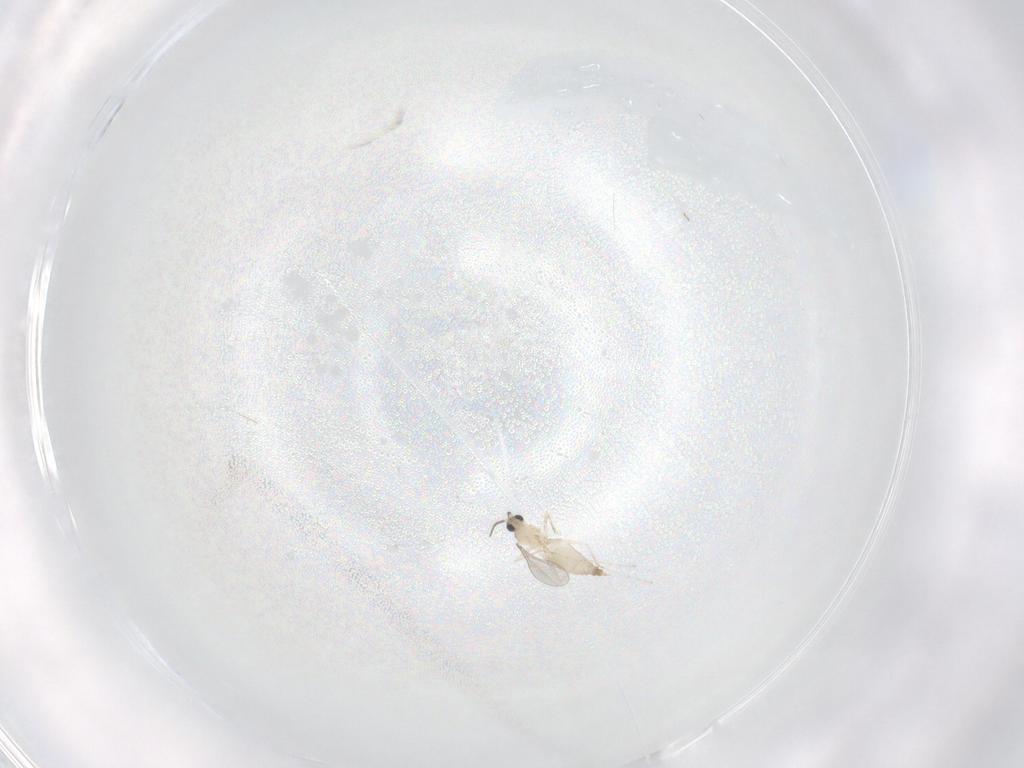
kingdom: Animalia
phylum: Arthropoda
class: Insecta
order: Diptera
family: Cecidomyiidae
